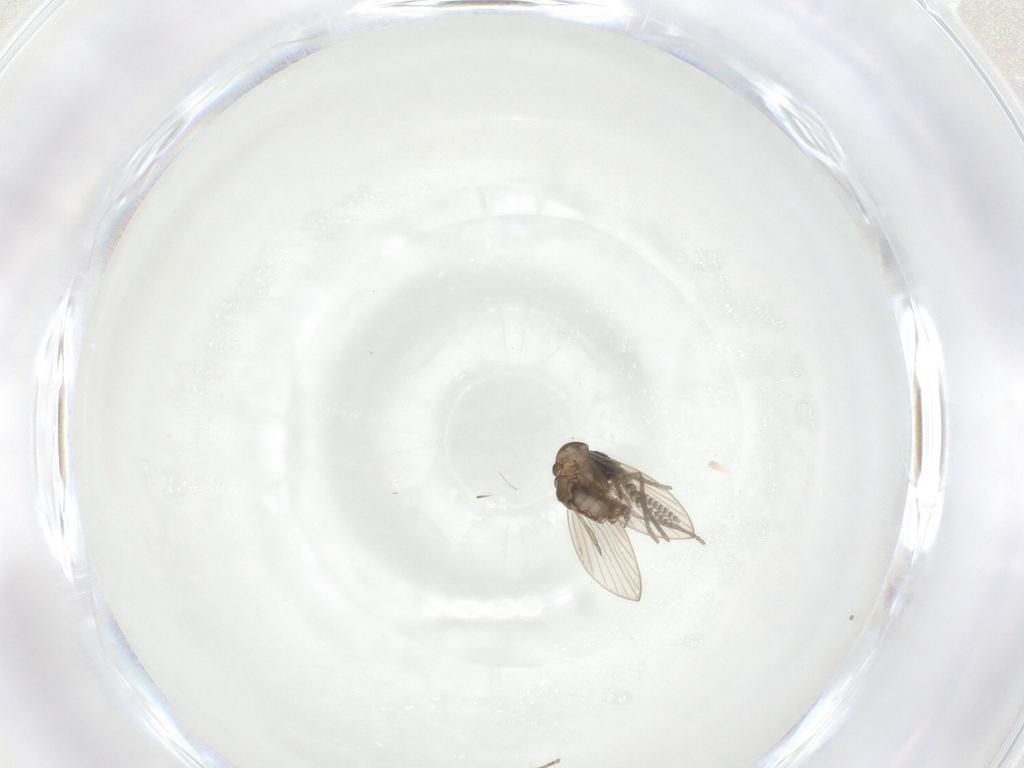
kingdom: Animalia
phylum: Arthropoda
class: Insecta
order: Diptera
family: Psychodidae
